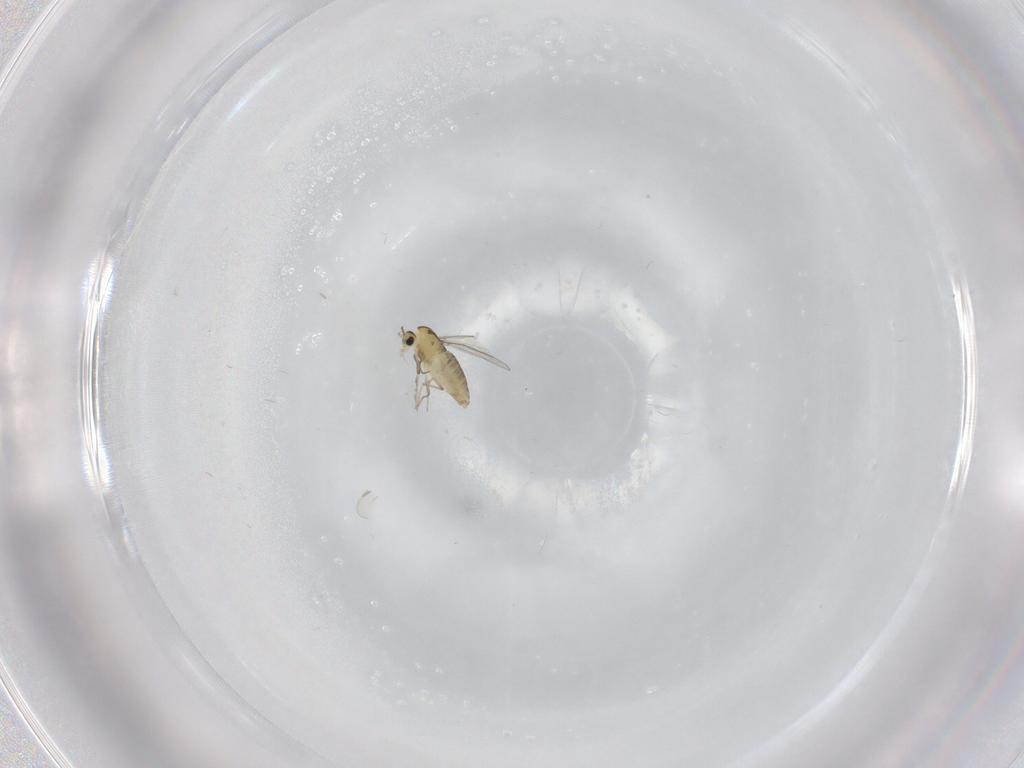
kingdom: Animalia
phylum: Arthropoda
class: Insecta
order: Diptera
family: Chironomidae
